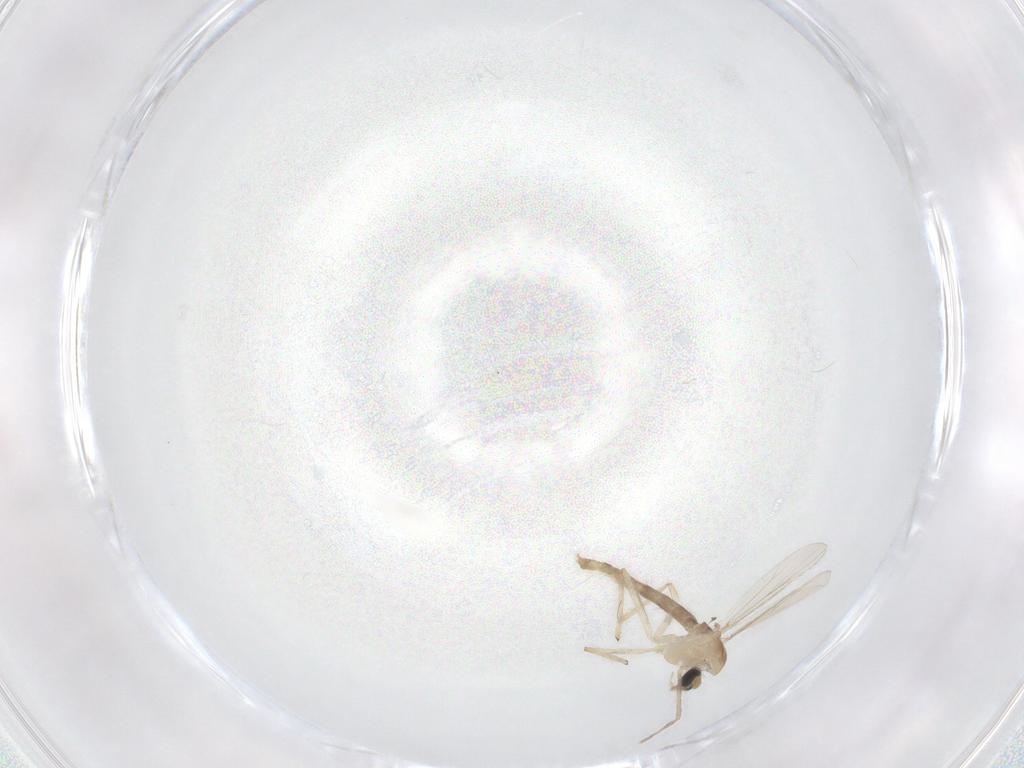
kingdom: Animalia
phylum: Arthropoda
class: Insecta
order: Diptera
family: Chironomidae
